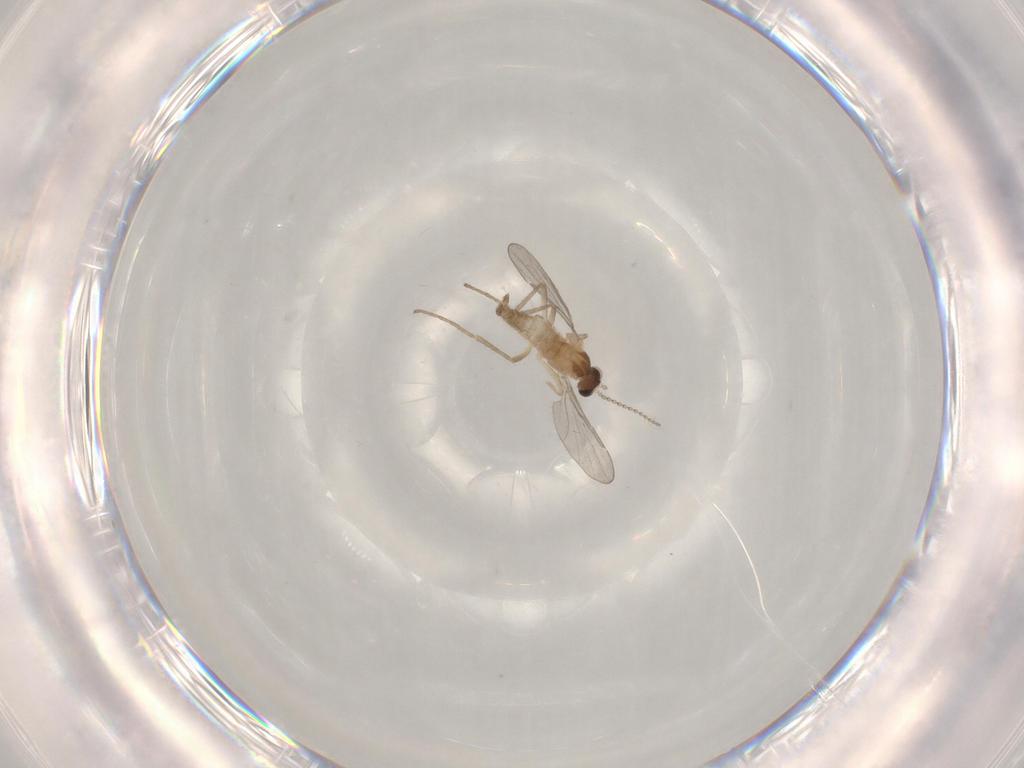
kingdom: Animalia
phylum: Arthropoda
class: Insecta
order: Diptera
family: Cecidomyiidae
